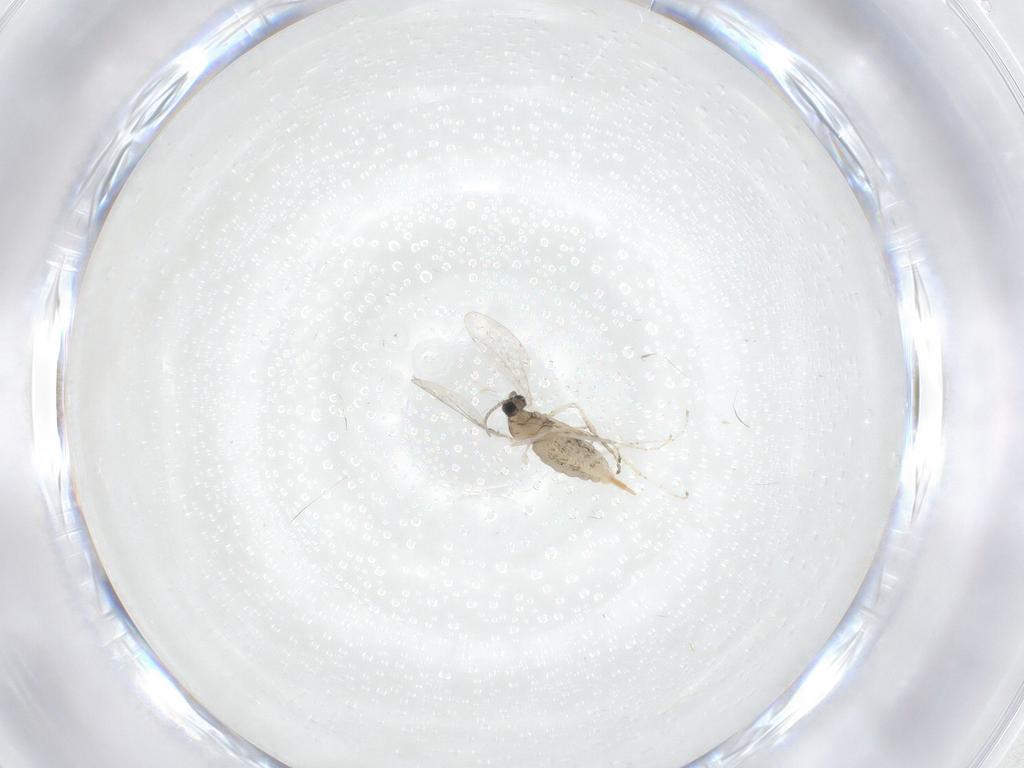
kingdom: Animalia
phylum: Arthropoda
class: Insecta
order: Diptera
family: Cecidomyiidae
